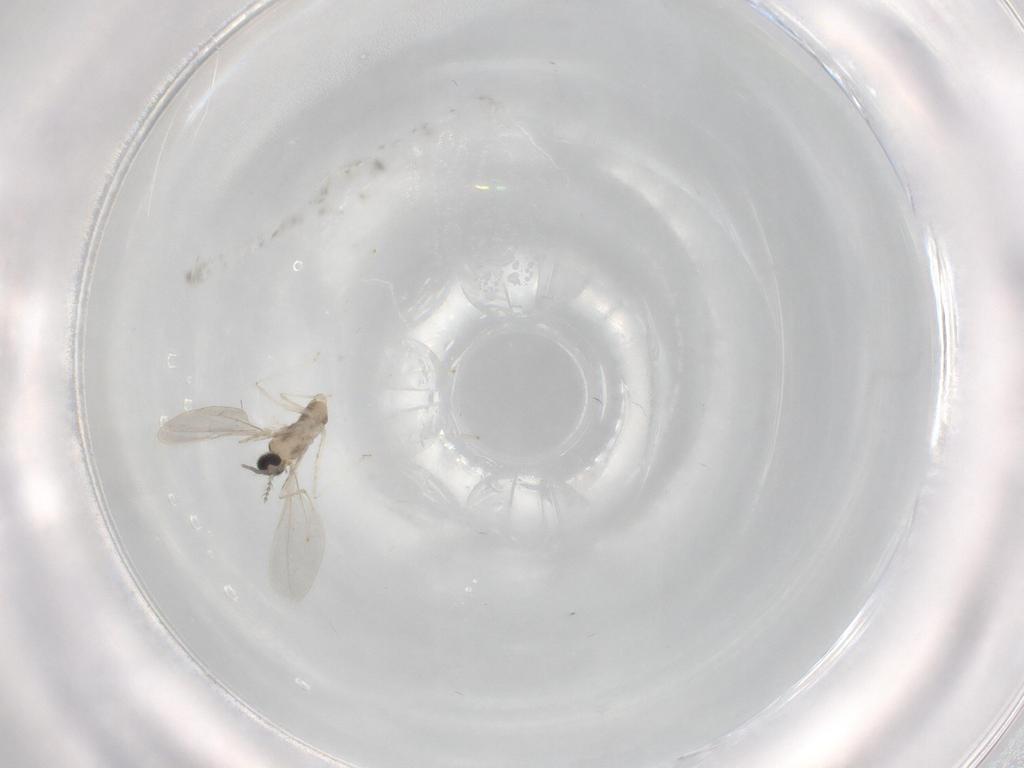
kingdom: Animalia
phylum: Arthropoda
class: Insecta
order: Diptera
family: Cecidomyiidae
